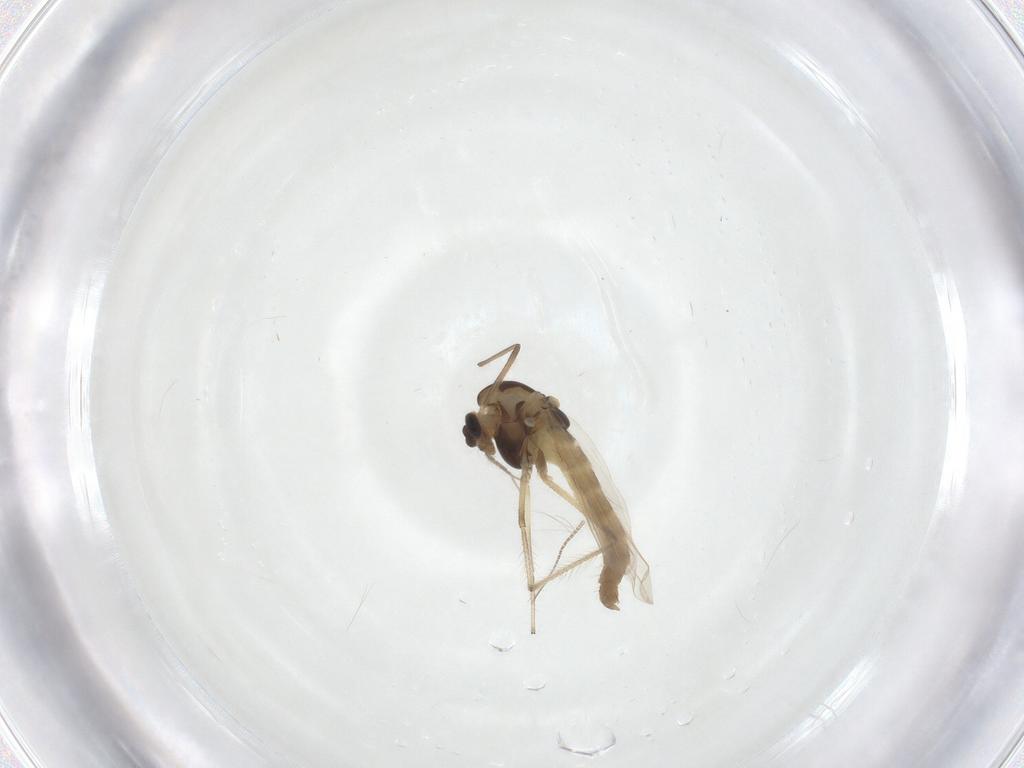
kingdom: Animalia
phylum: Arthropoda
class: Insecta
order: Diptera
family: Chironomidae
